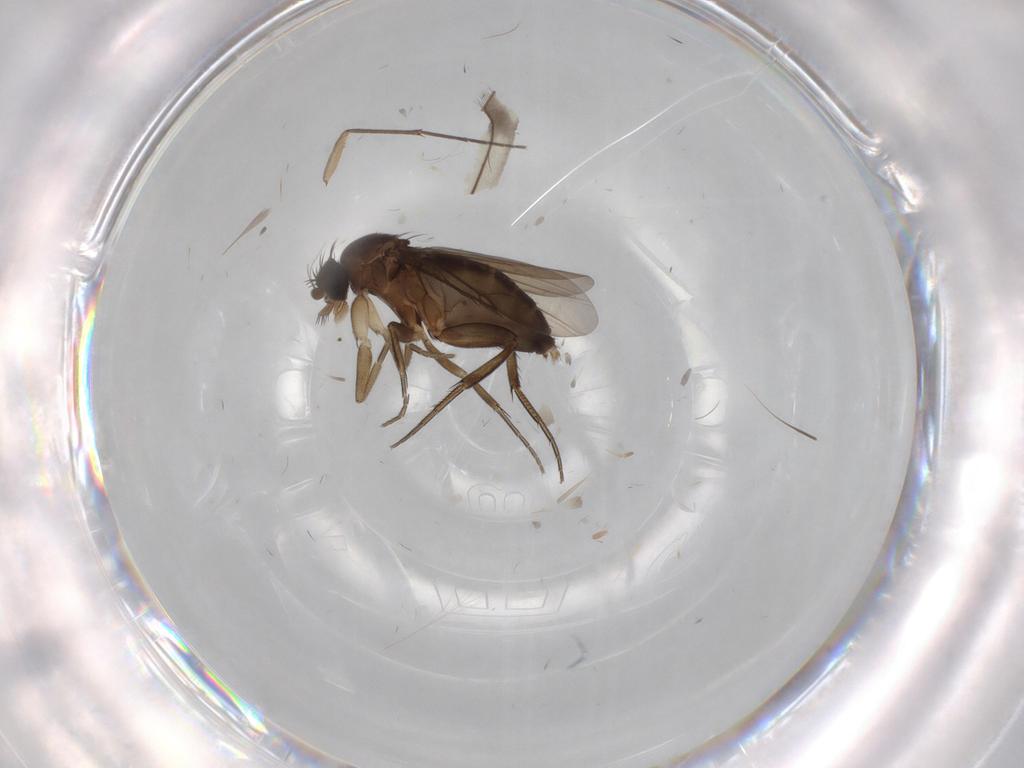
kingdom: Animalia
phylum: Arthropoda
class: Insecta
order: Diptera
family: Phoridae
